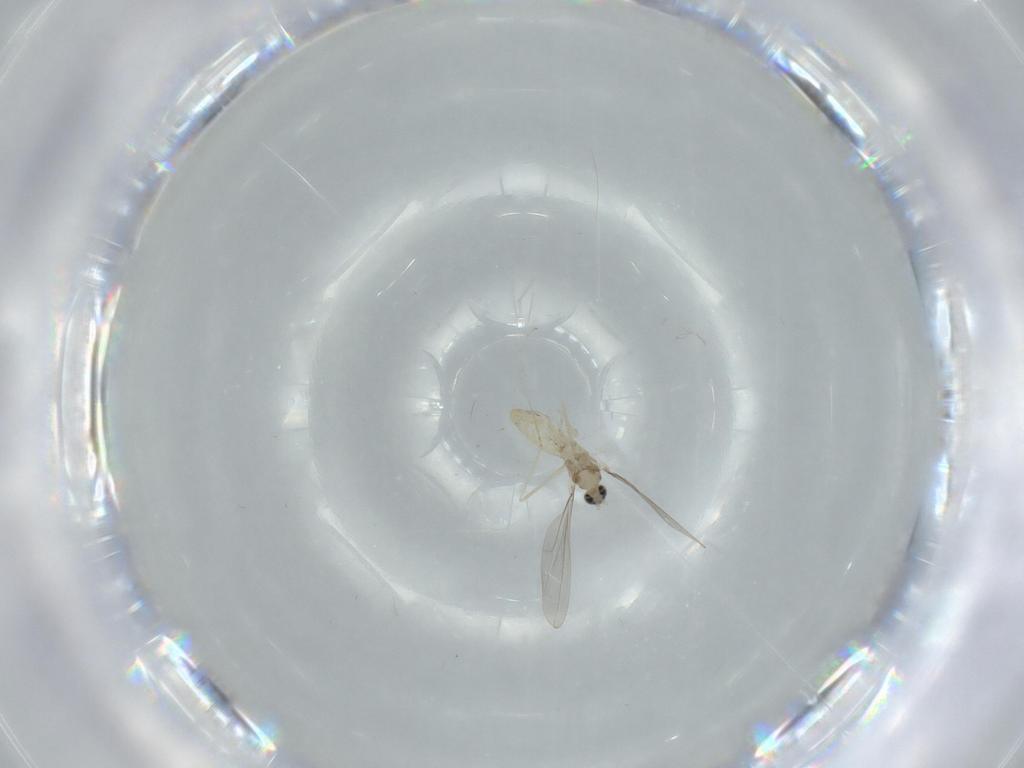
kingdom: Animalia
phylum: Arthropoda
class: Insecta
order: Diptera
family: Cecidomyiidae
